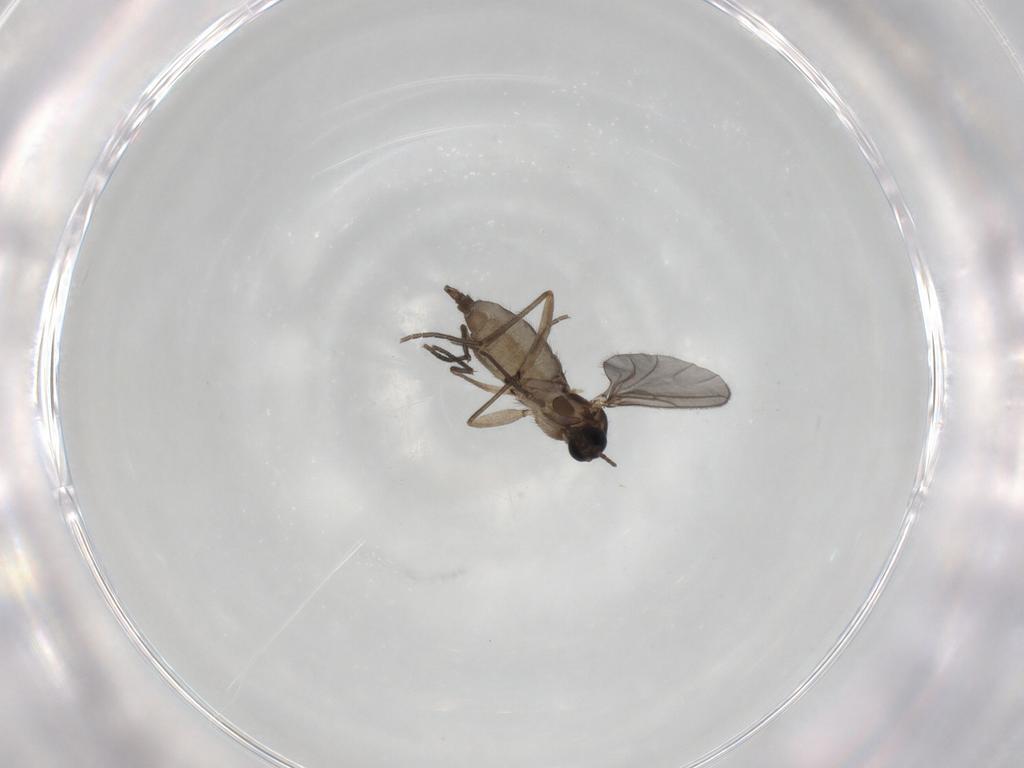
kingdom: Animalia
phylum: Arthropoda
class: Insecta
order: Diptera
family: Sciaridae
